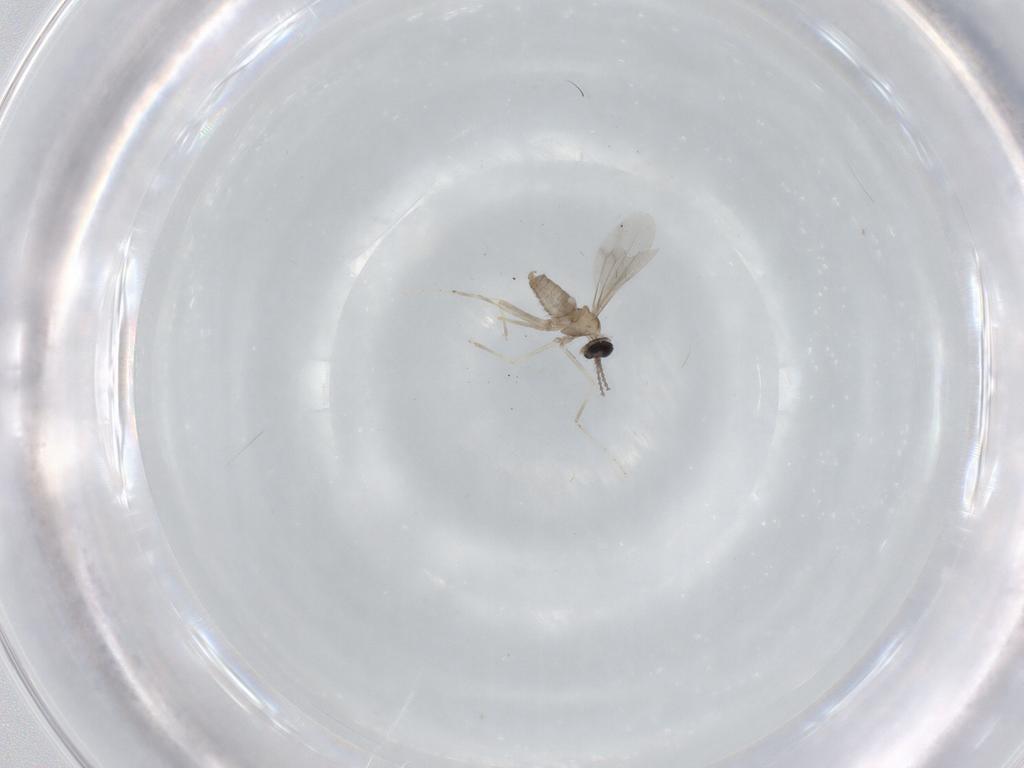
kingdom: Animalia
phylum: Arthropoda
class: Insecta
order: Diptera
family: Cecidomyiidae
